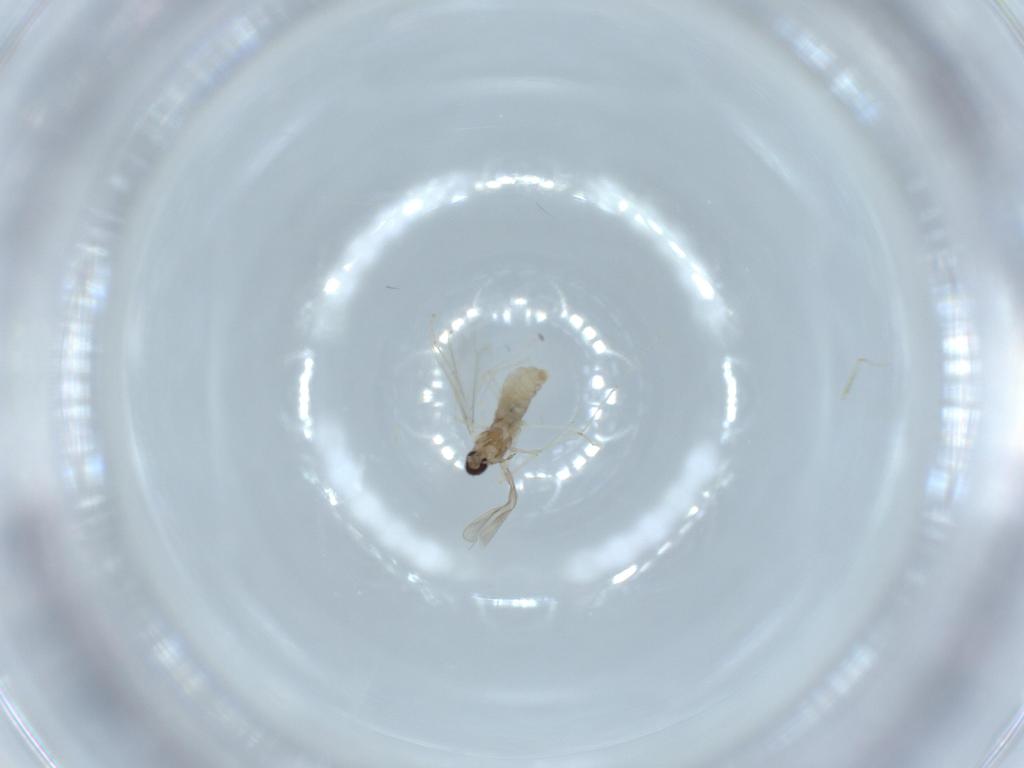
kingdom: Animalia
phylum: Arthropoda
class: Insecta
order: Diptera
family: Cecidomyiidae
